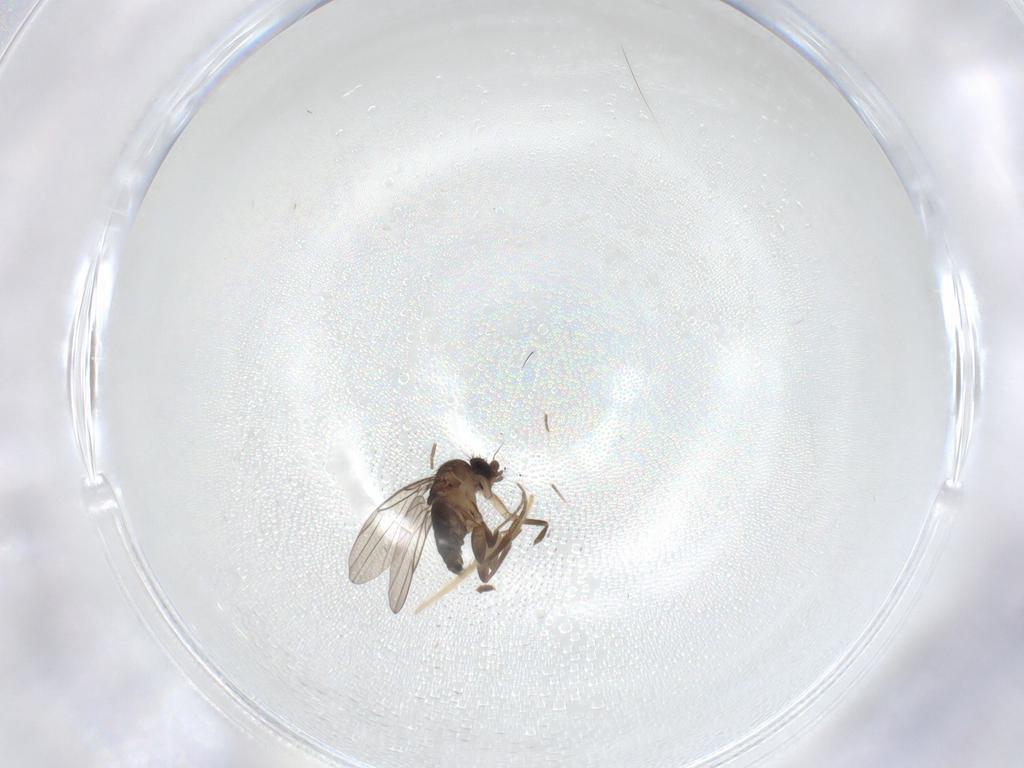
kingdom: Animalia
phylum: Arthropoda
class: Insecta
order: Diptera
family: Phoridae
